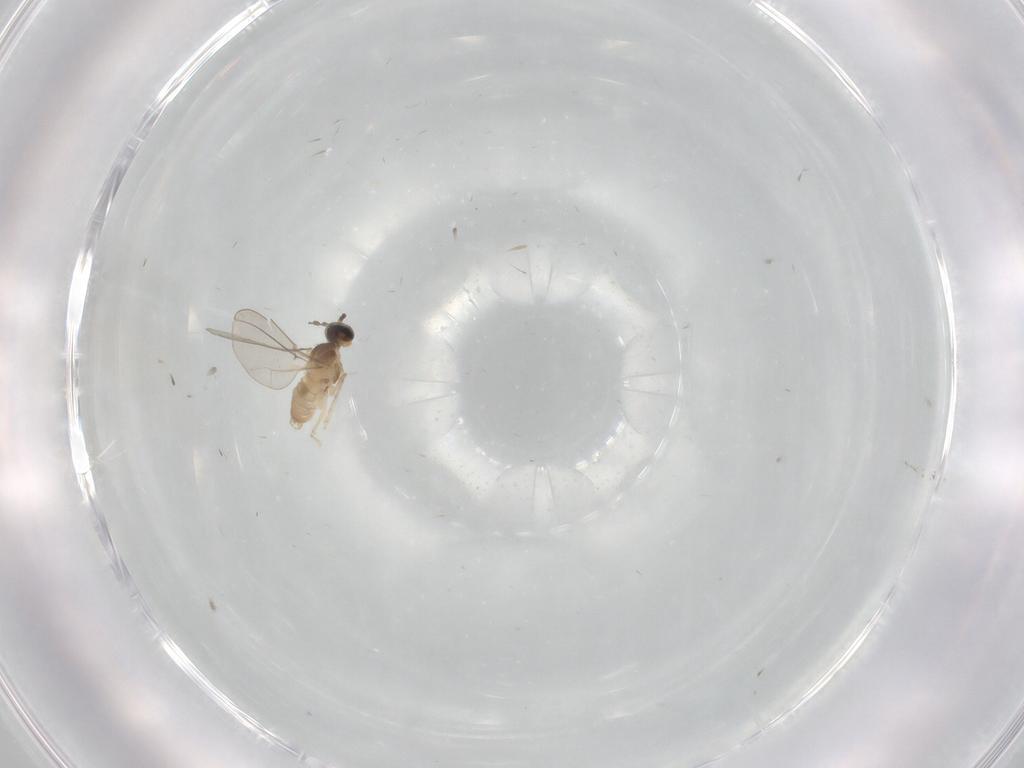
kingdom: Animalia
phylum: Arthropoda
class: Insecta
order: Diptera
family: Cecidomyiidae
